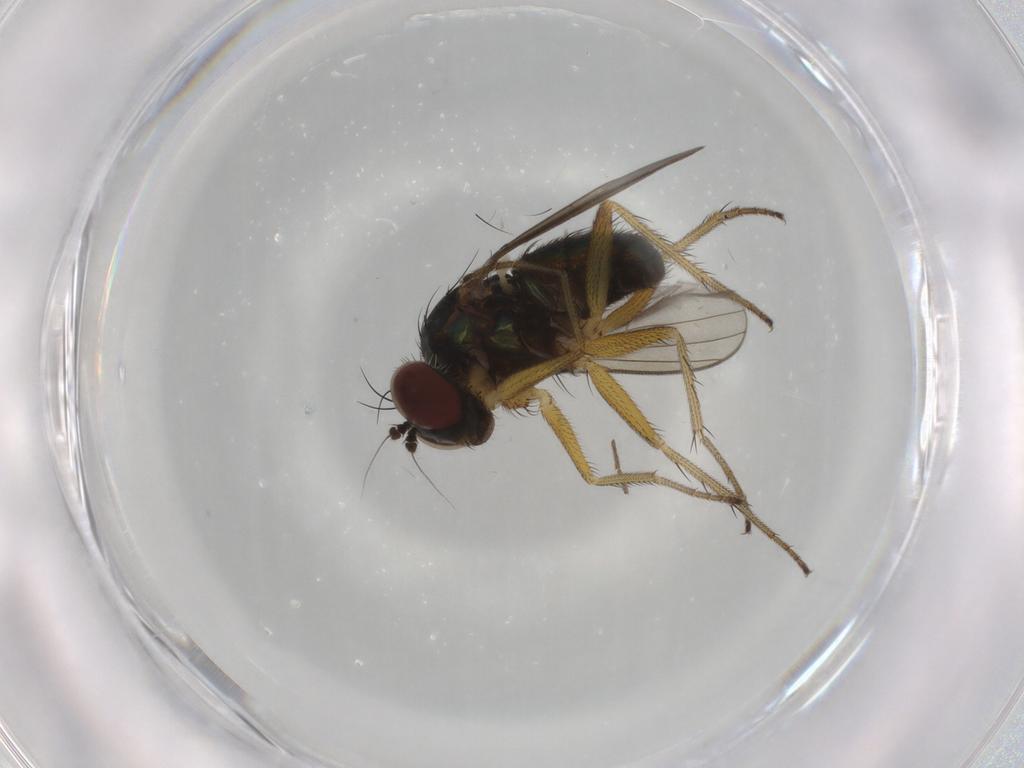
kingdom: Animalia
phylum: Arthropoda
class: Insecta
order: Diptera
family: Dolichopodidae
